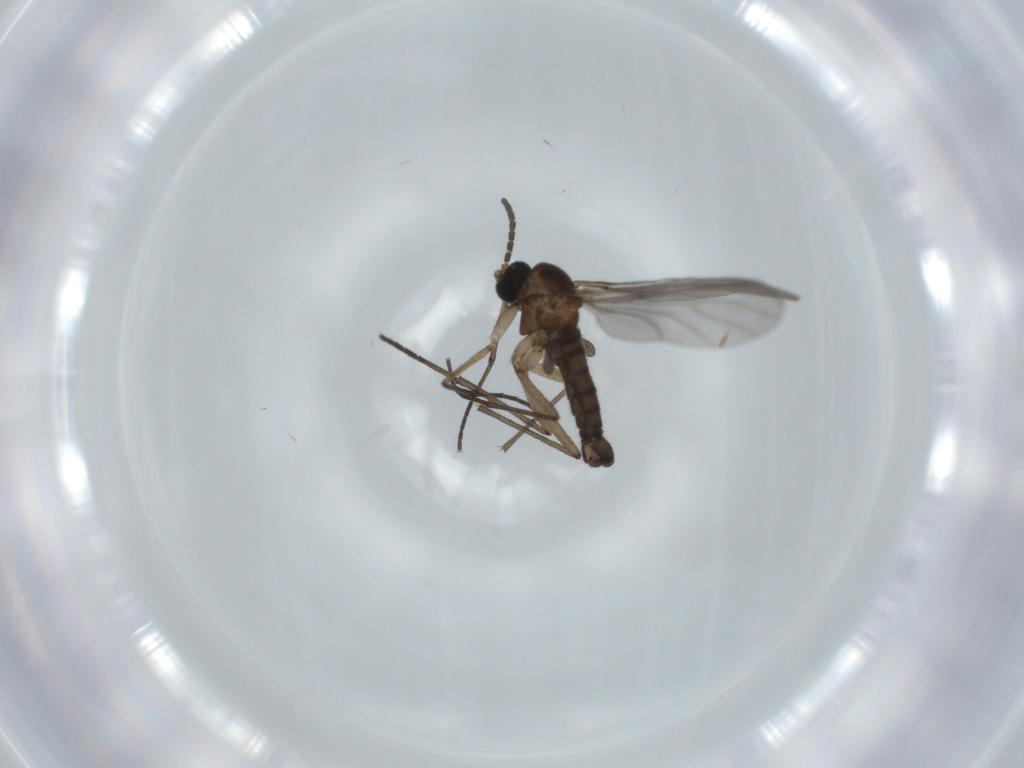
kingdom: Animalia
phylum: Arthropoda
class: Insecta
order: Diptera
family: Sciaridae
